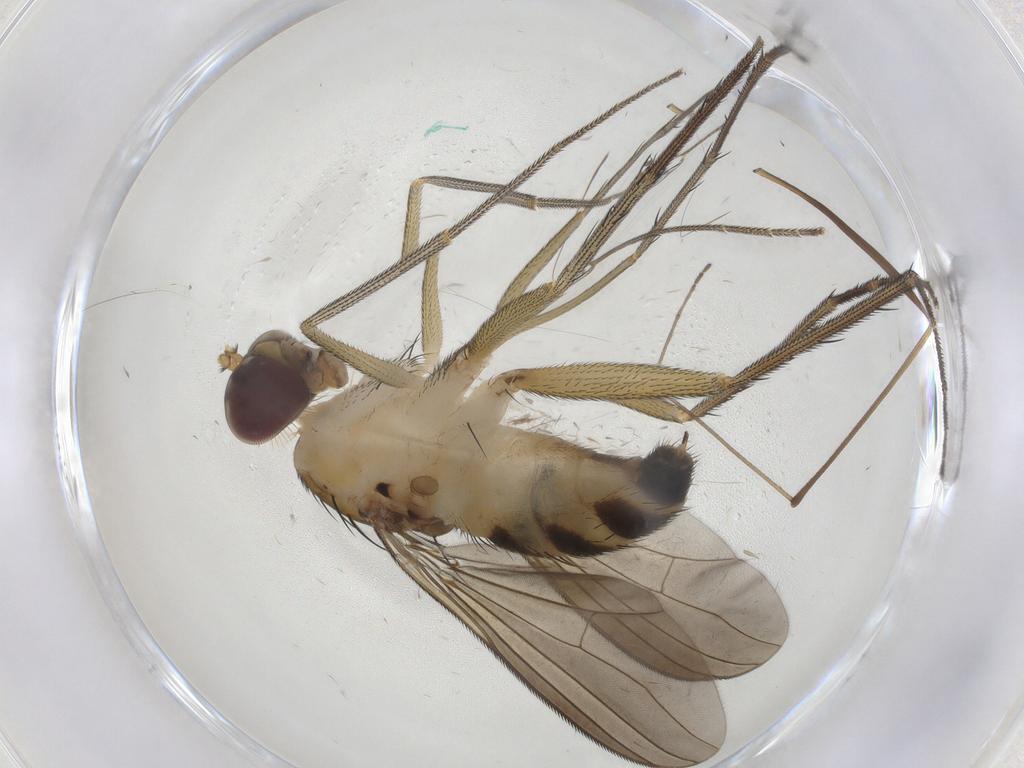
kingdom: Animalia
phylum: Arthropoda
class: Insecta
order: Diptera
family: Limoniidae
